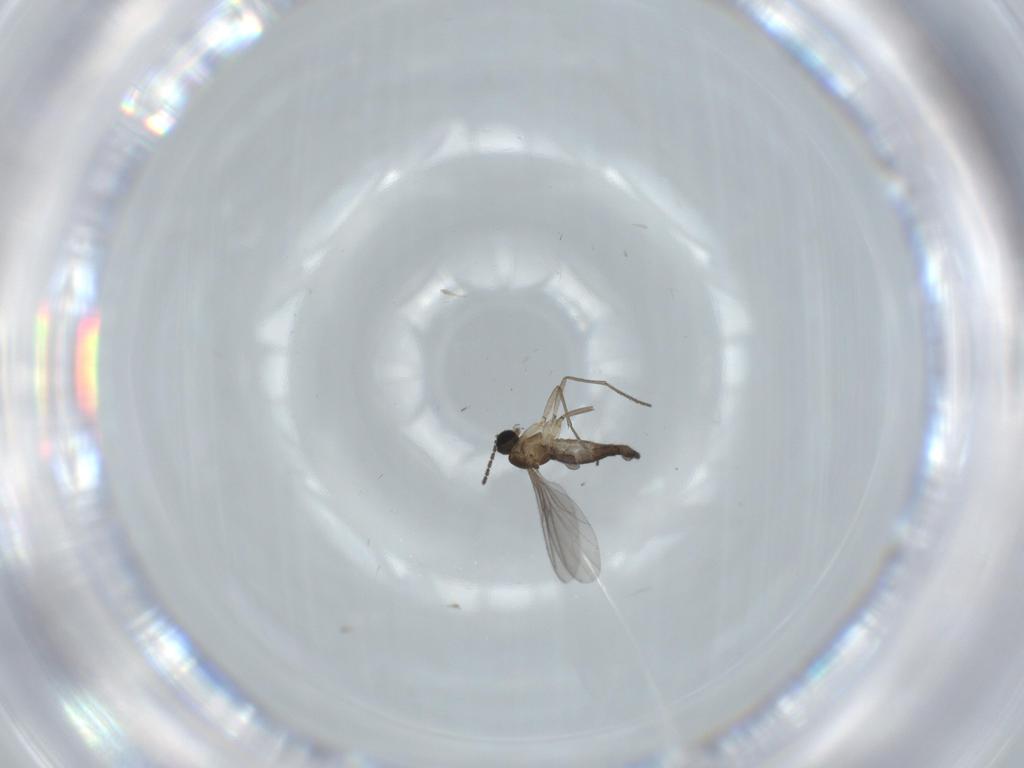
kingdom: Animalia
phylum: Arthropoda
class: Insecta
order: Diptera
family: Sciaridae
